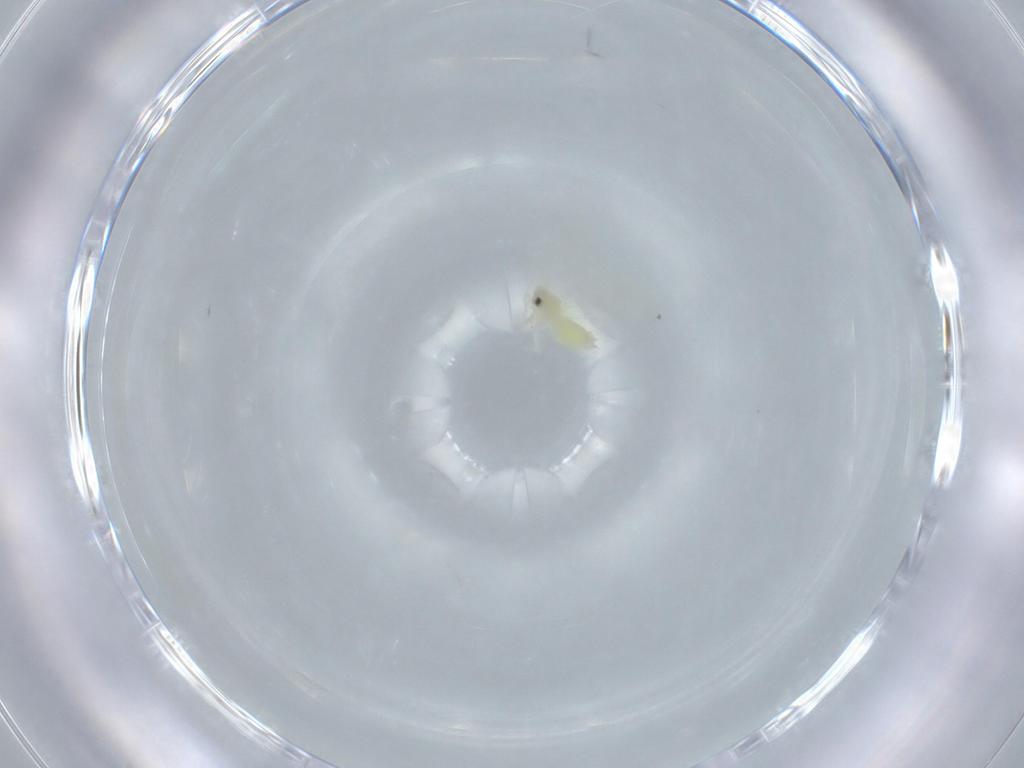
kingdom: Animalia
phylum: Arthropoda
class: Insecta
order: Hemiptera
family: Aleyrodidae
